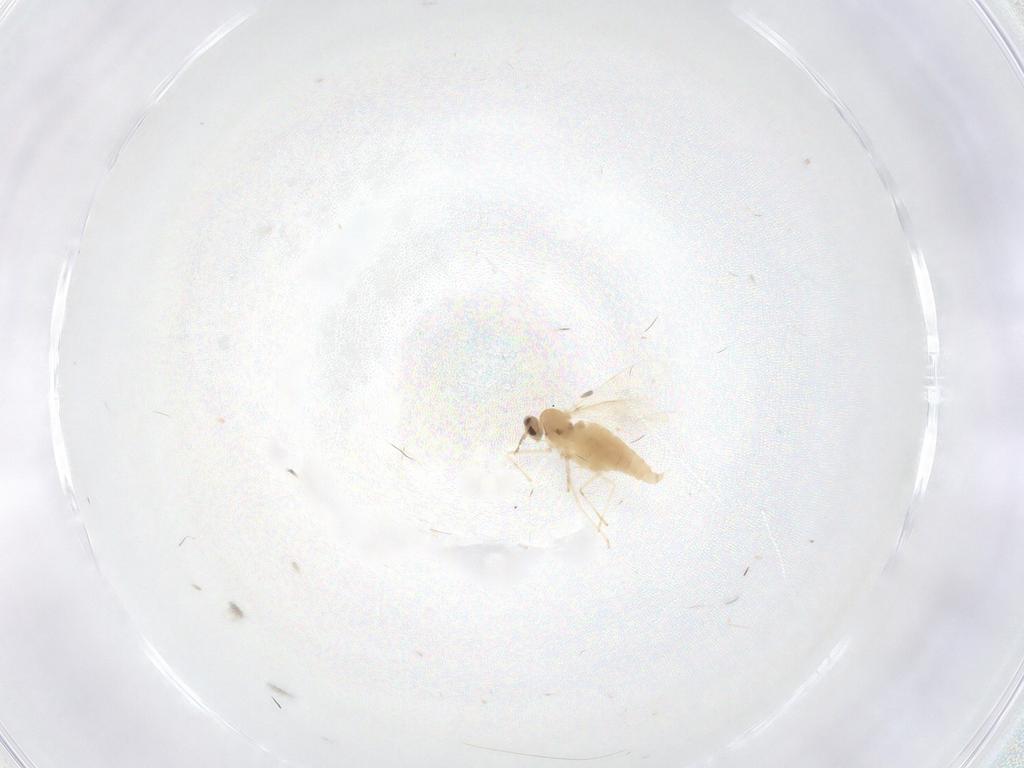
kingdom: Animalia
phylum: Arthropoda
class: Insecta
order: Diptera
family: Cecidomyiidae
